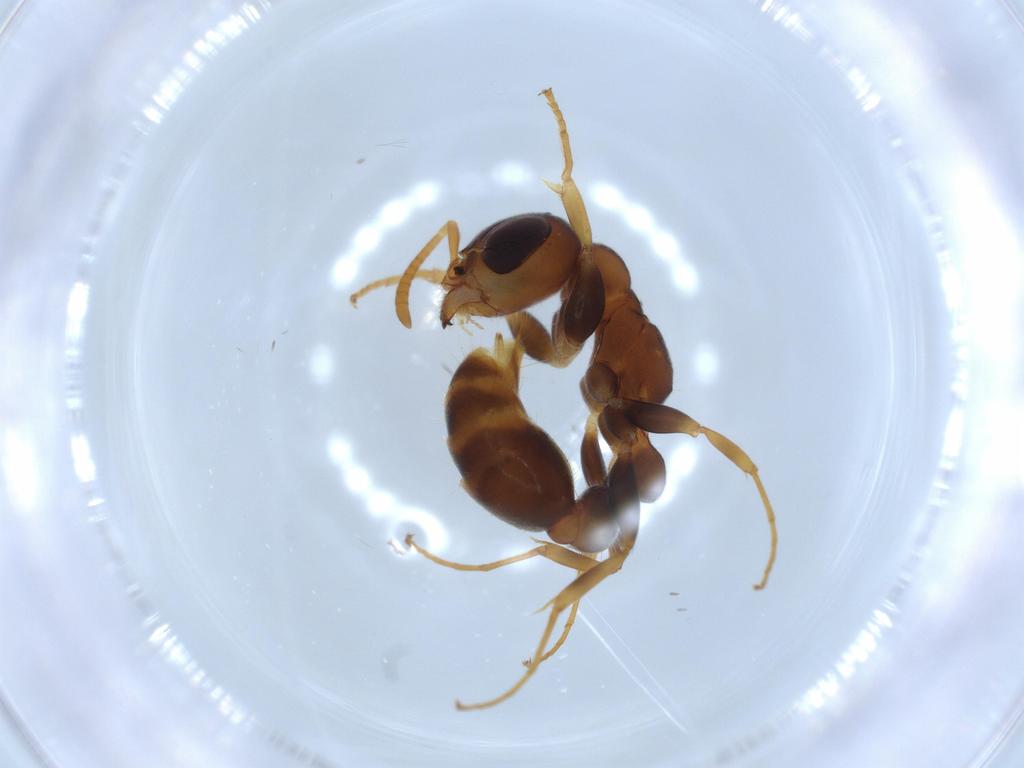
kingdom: Animalia
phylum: Arthropoda
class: Insecta
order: Hymenoptera
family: Formicidae
